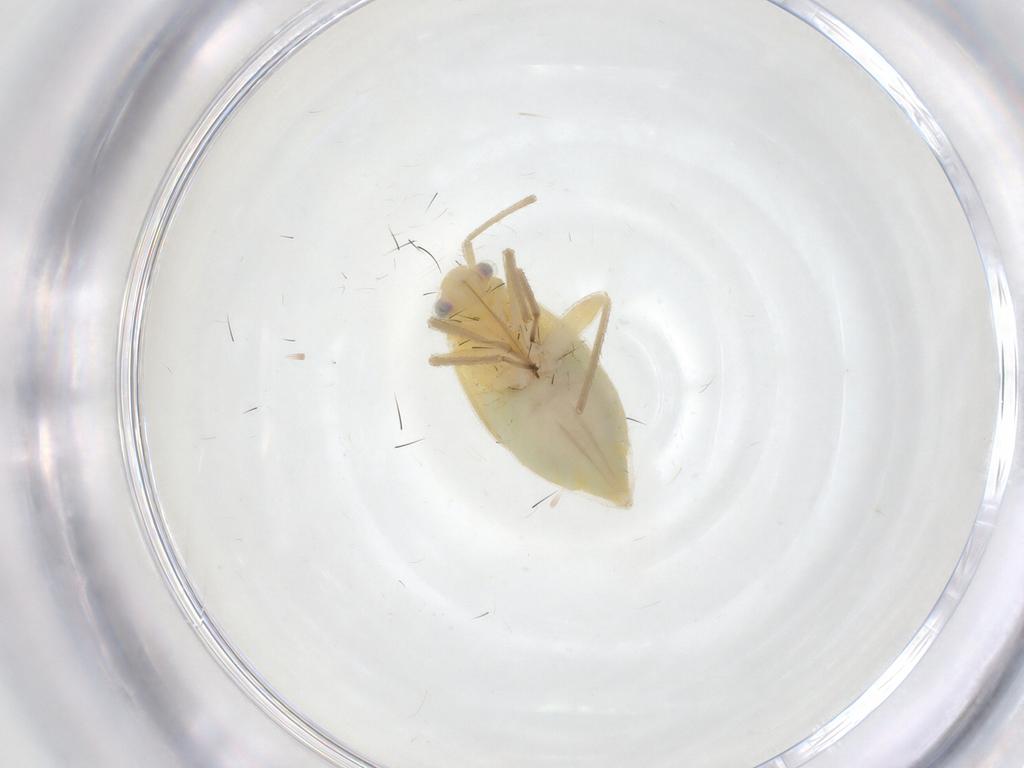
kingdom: Animalia
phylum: Arthropoda
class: Insecta
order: Hemiptera
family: Miridae
